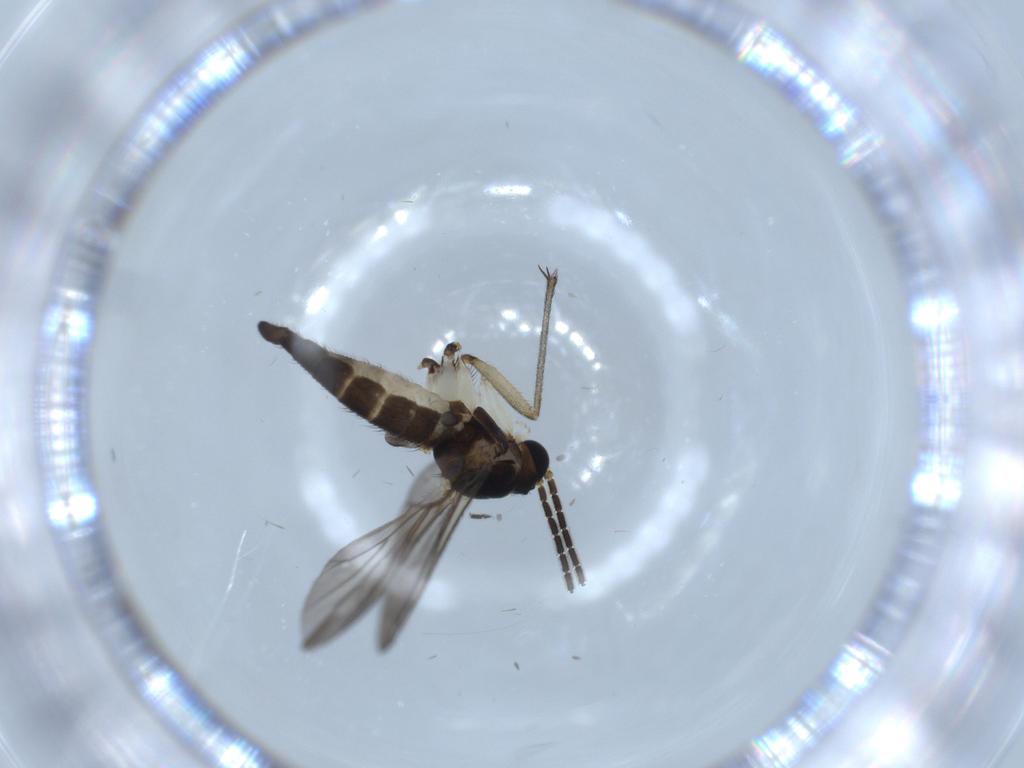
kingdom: Animalia
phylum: Arthropoda
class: Insecta
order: Diptera
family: Sciaridae
